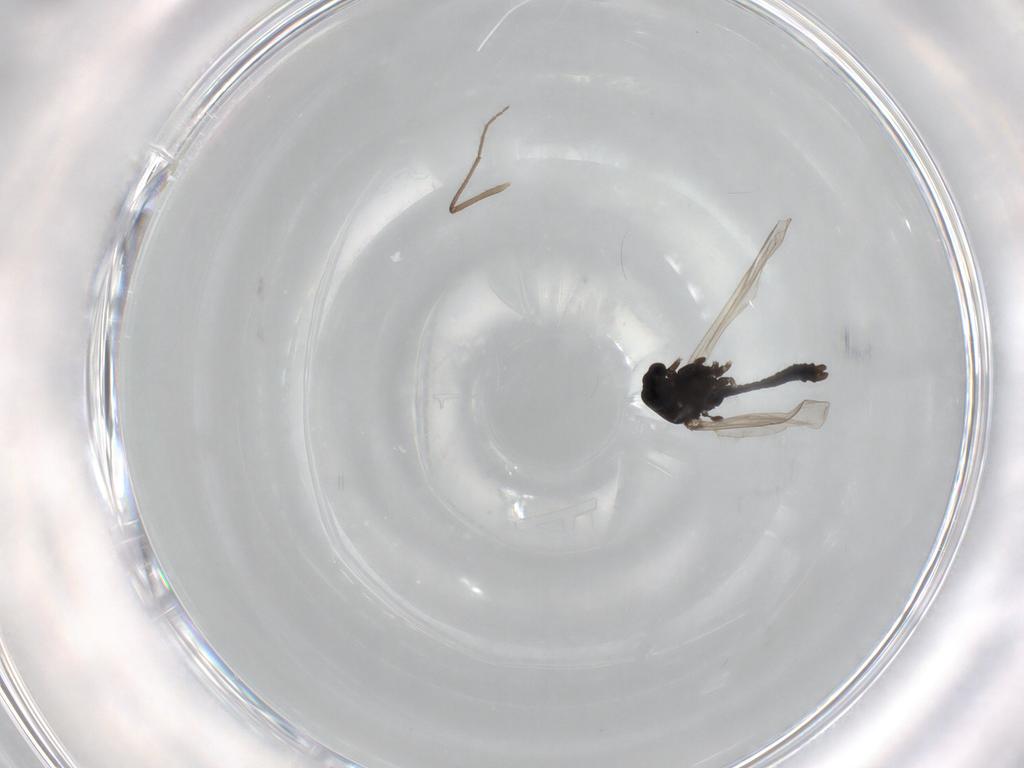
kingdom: Animalia
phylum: Arthropoda
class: Insecta
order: Diptera
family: Chironomidae
